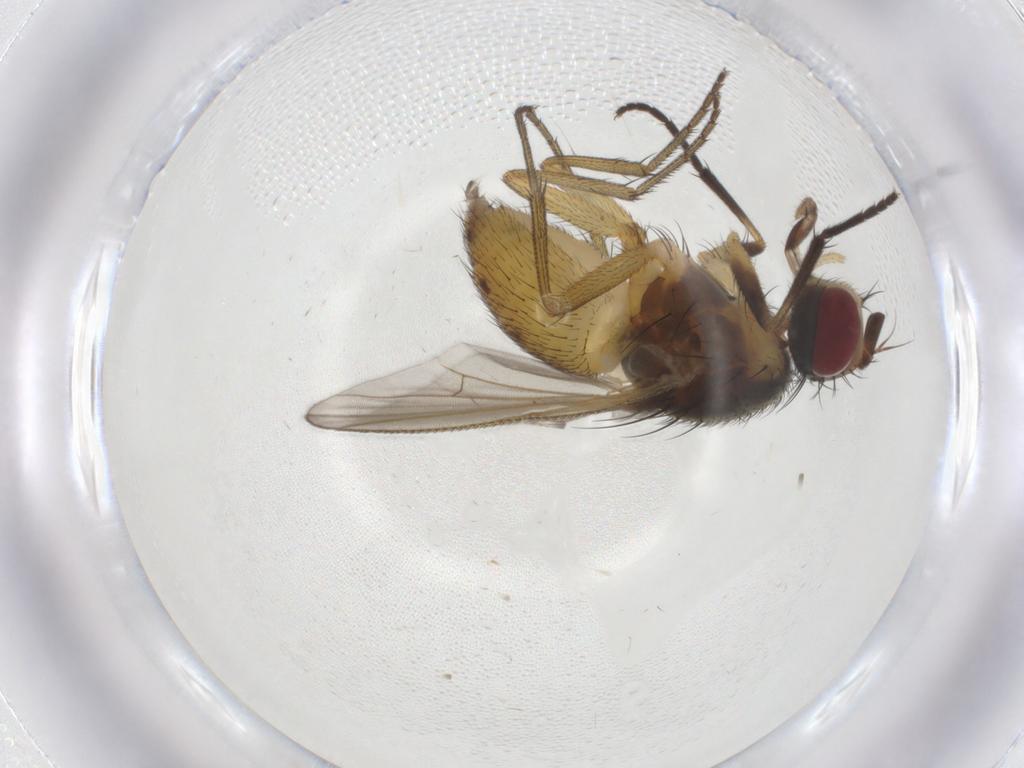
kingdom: Animalia
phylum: Arthropoda
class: Insecta
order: Diptera
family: Muscidae
